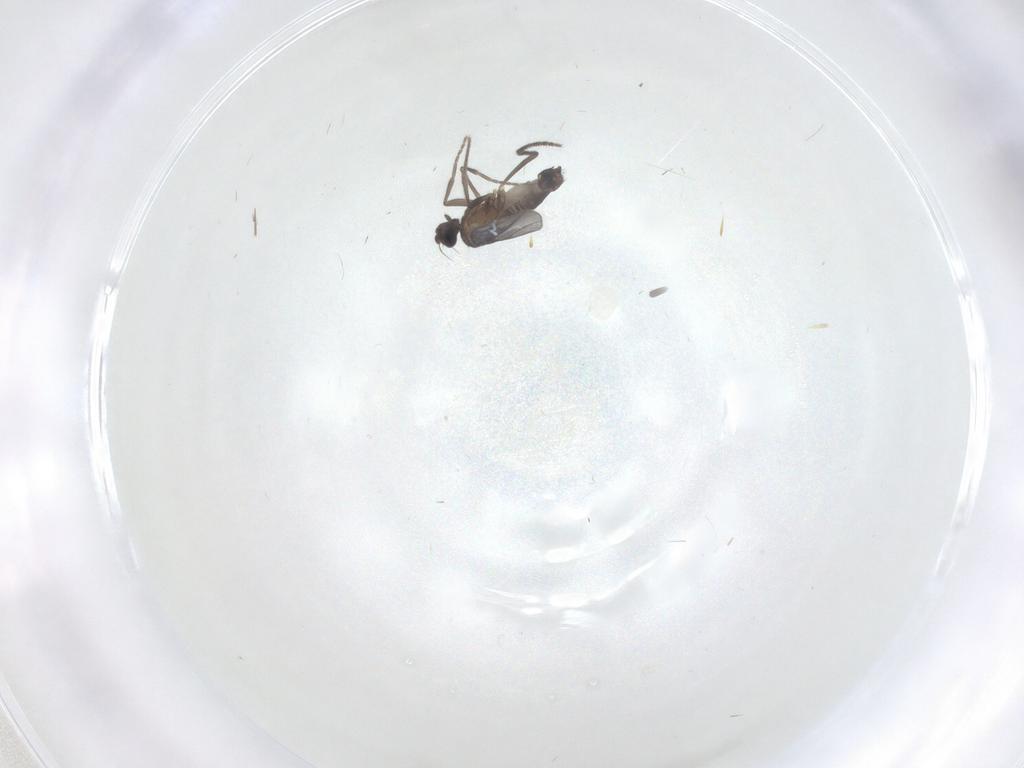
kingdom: Animalia
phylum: Arthropoda
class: Insecta
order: Diptera
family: Phoridae
